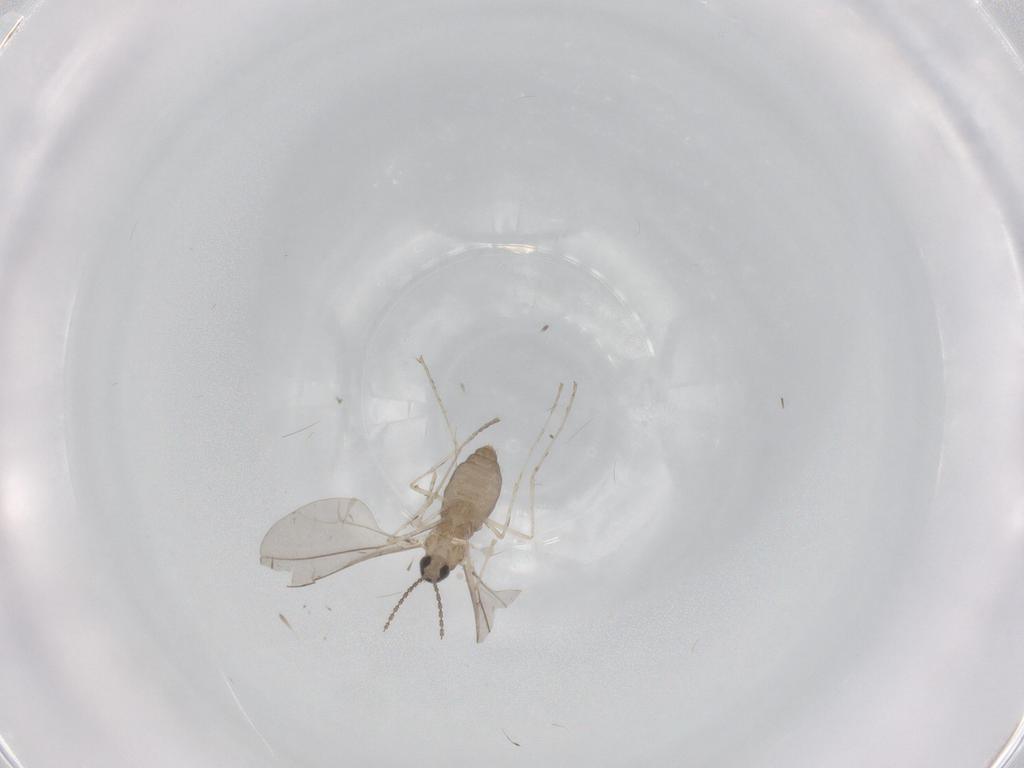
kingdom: Animalia
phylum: Arthropoda
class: Insecta
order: Diptera
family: Cecidomyiidae
